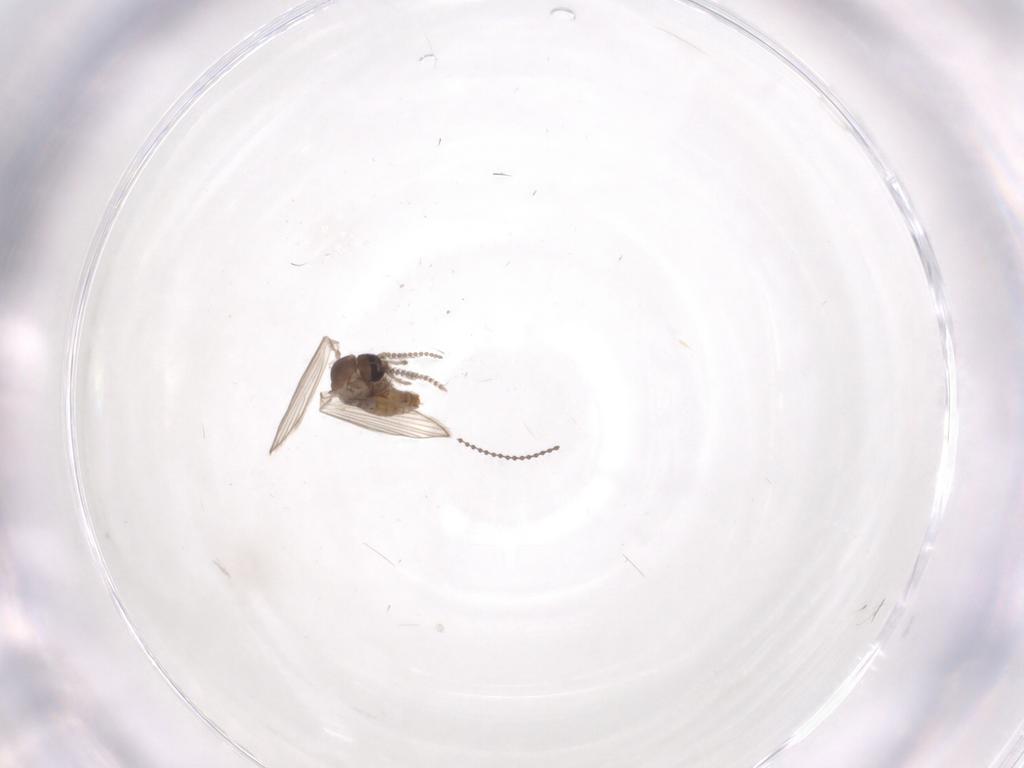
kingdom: Animalia
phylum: Arthropoda
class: Insecta
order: Diptera
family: Psychodidae
